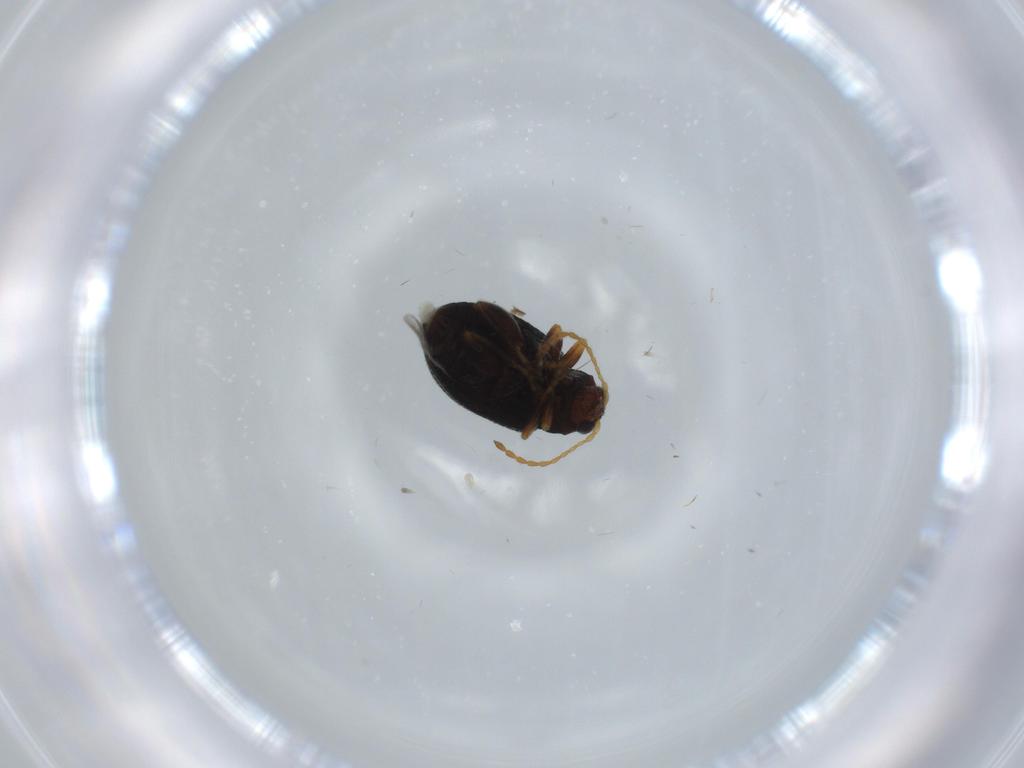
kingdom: Animalia
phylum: Arthropoda
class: Insecta
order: Coleoptera
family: Chrysomelidae
